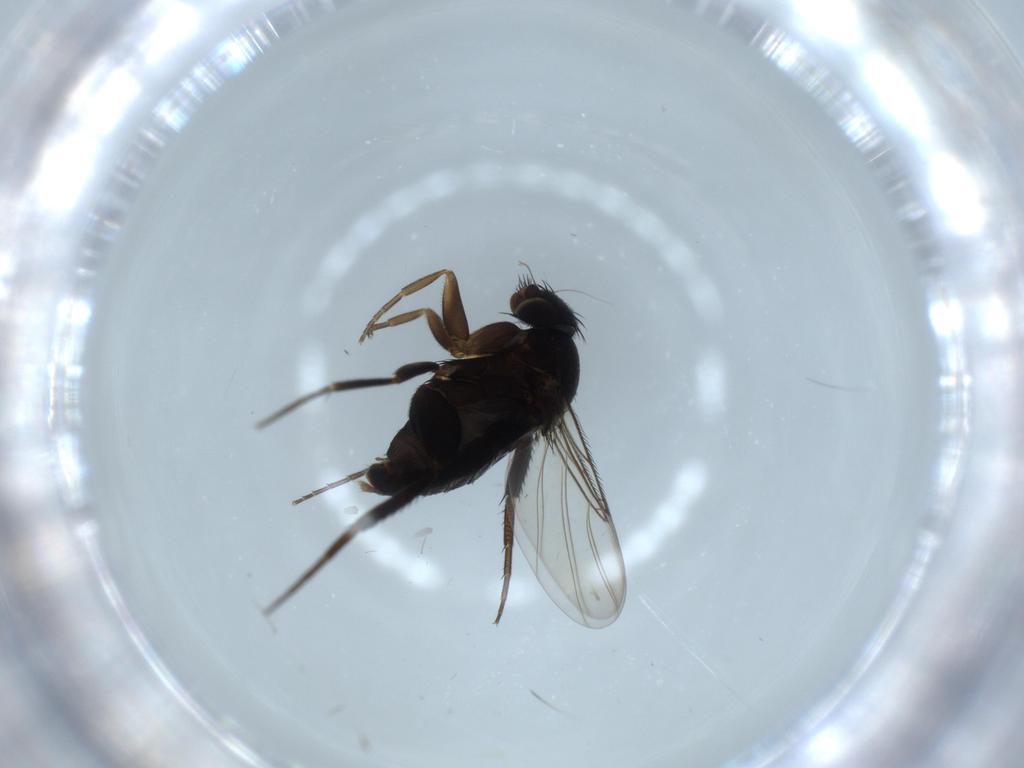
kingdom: Animalia
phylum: Arthropoda
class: Insecta
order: Diptera
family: Phoridae
